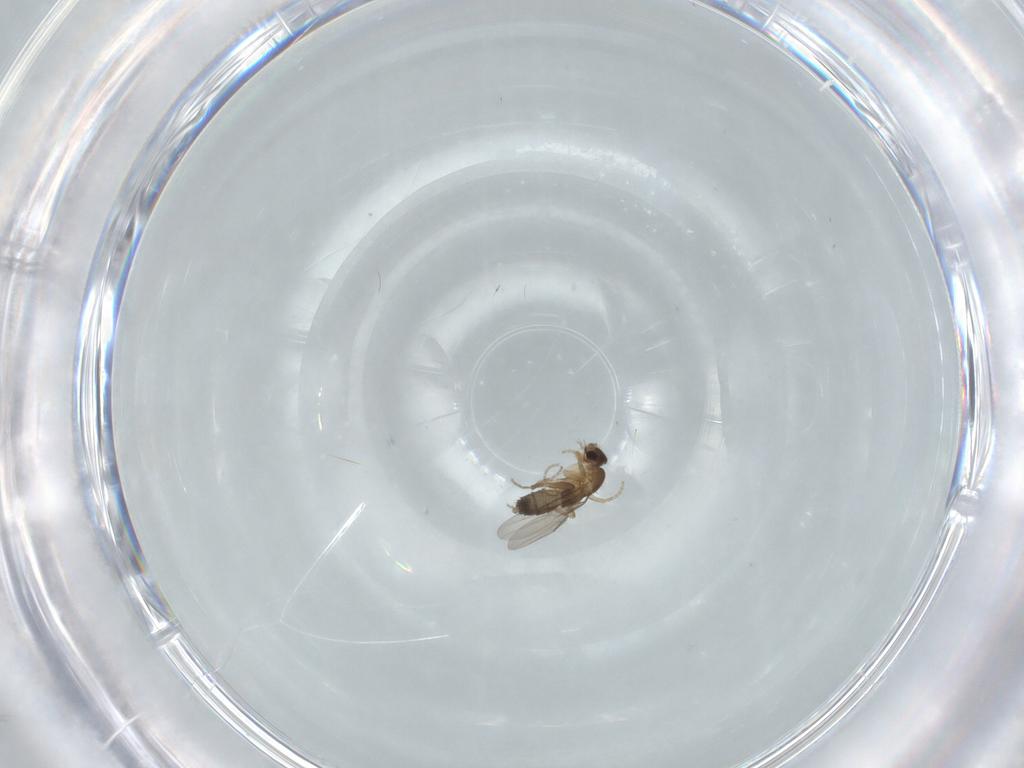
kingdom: Animalia
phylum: Arthropoda
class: Insecta
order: Diptera
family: Phoridae
